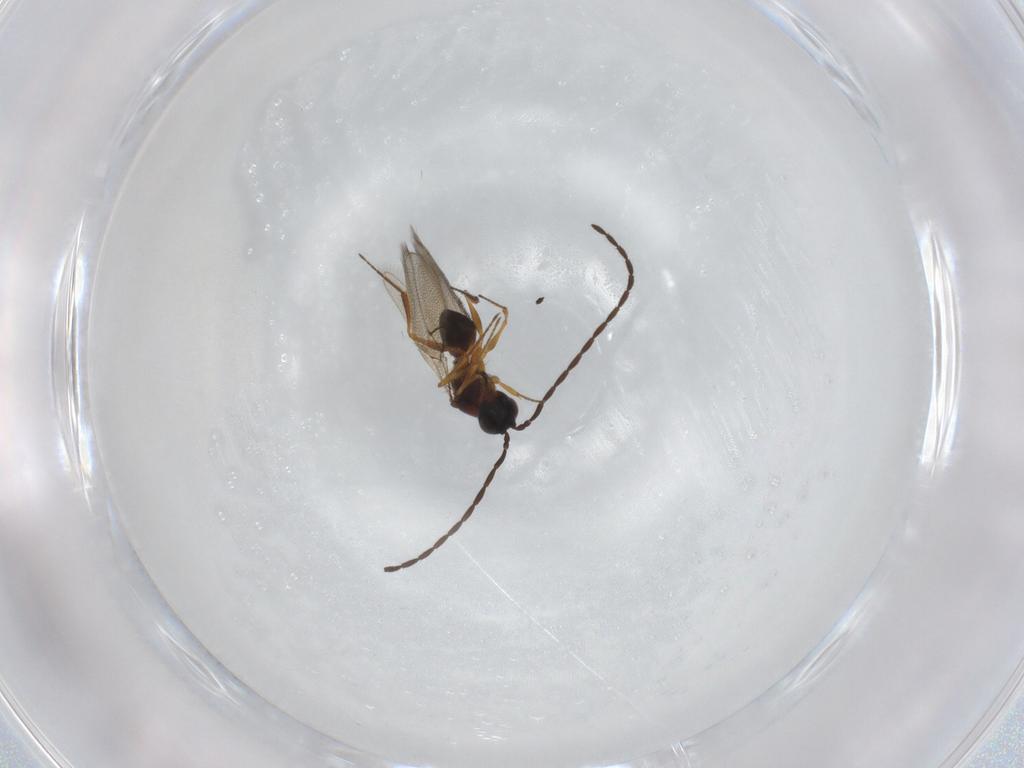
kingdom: Animalia
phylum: Arthropoda
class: Insecta
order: Hymenoptera
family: Figitidae
